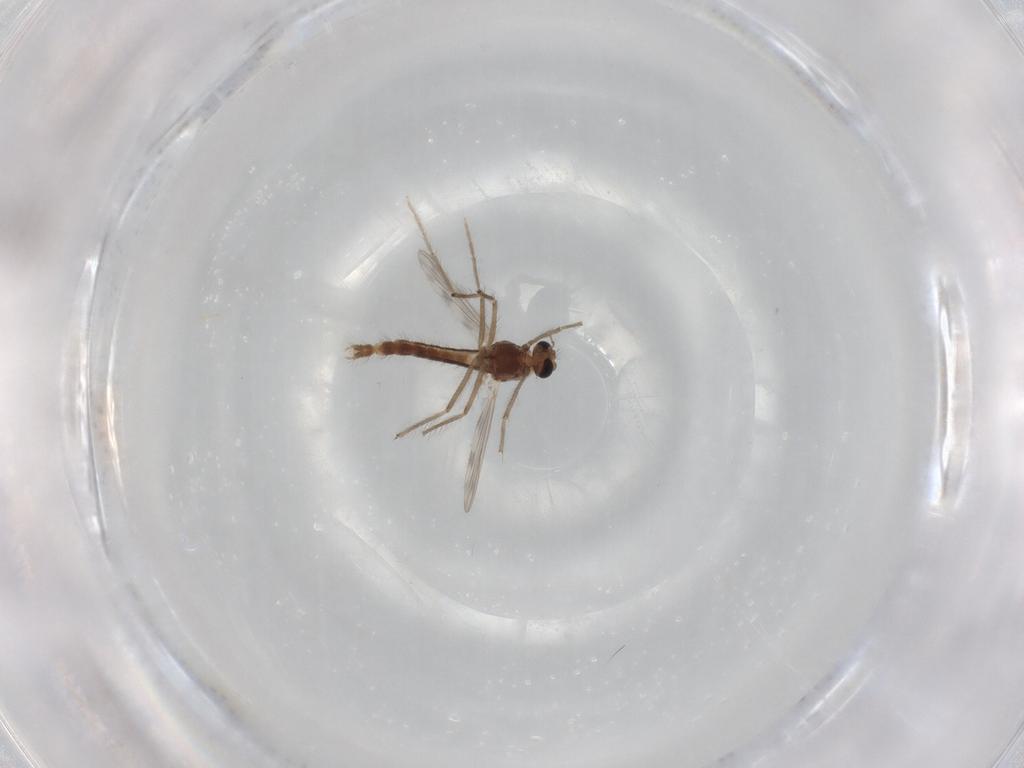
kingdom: Animalia
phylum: Arthropoda
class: Insecta
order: Diptera
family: Chironomidae
